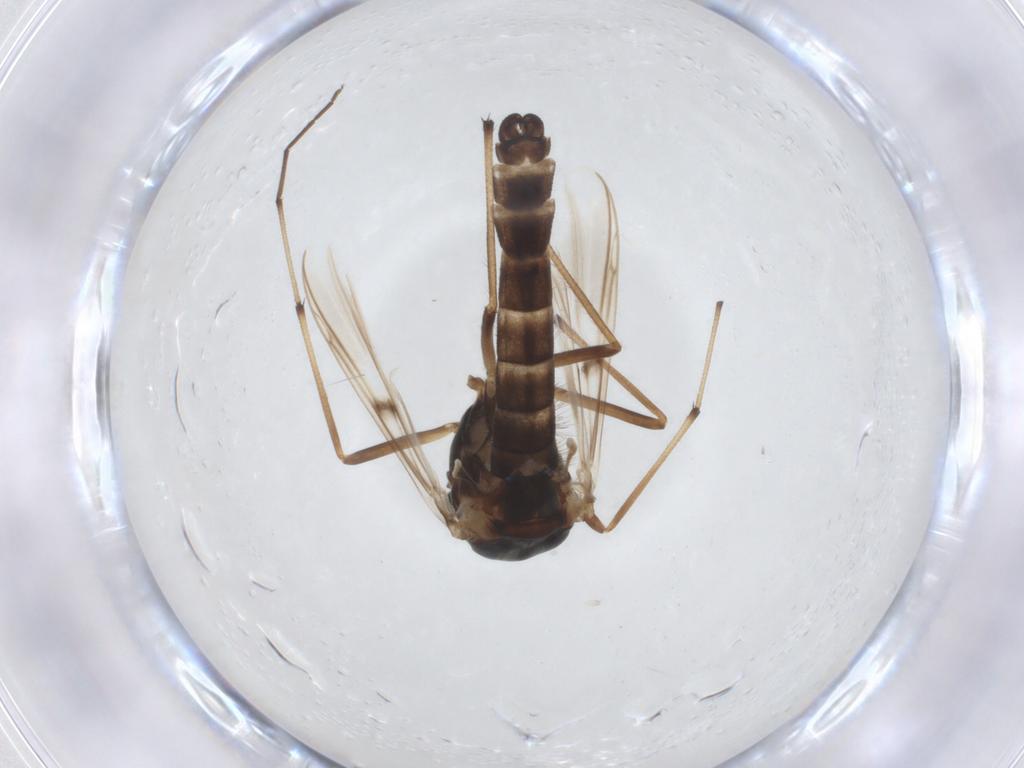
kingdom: Animalia
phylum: Arthropoda
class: Insecta
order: Diptera
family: Chironomidae
